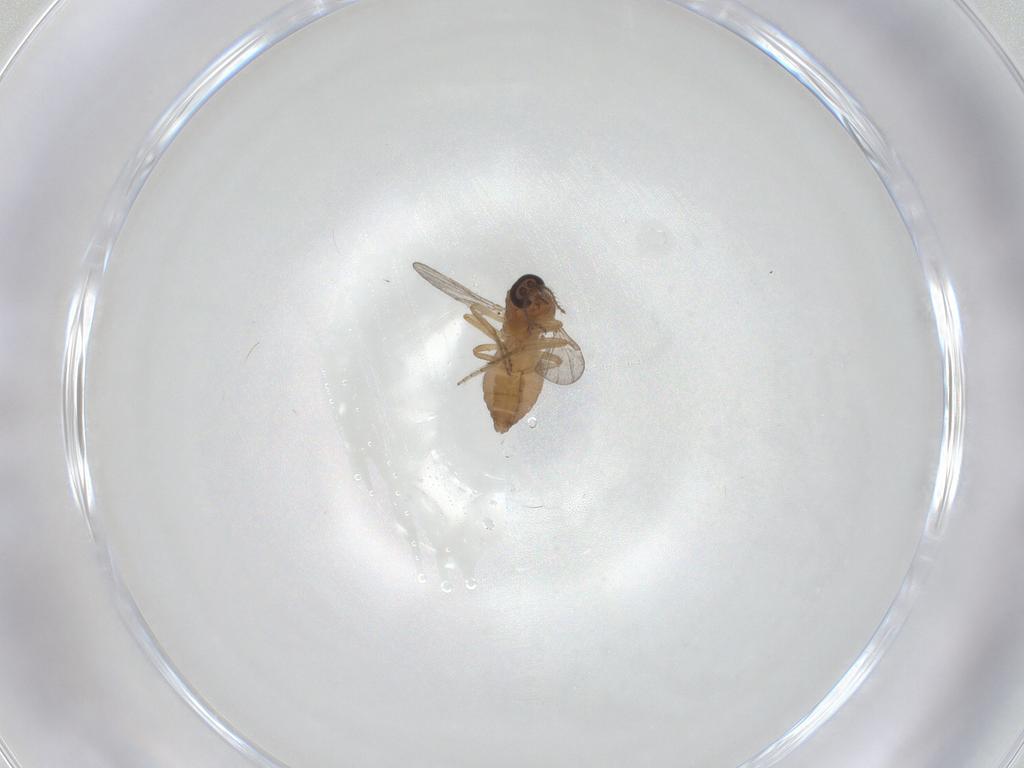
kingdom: Animalia
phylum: Arthropoda
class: Insecta
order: Diptera
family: Ceratopogonidae
